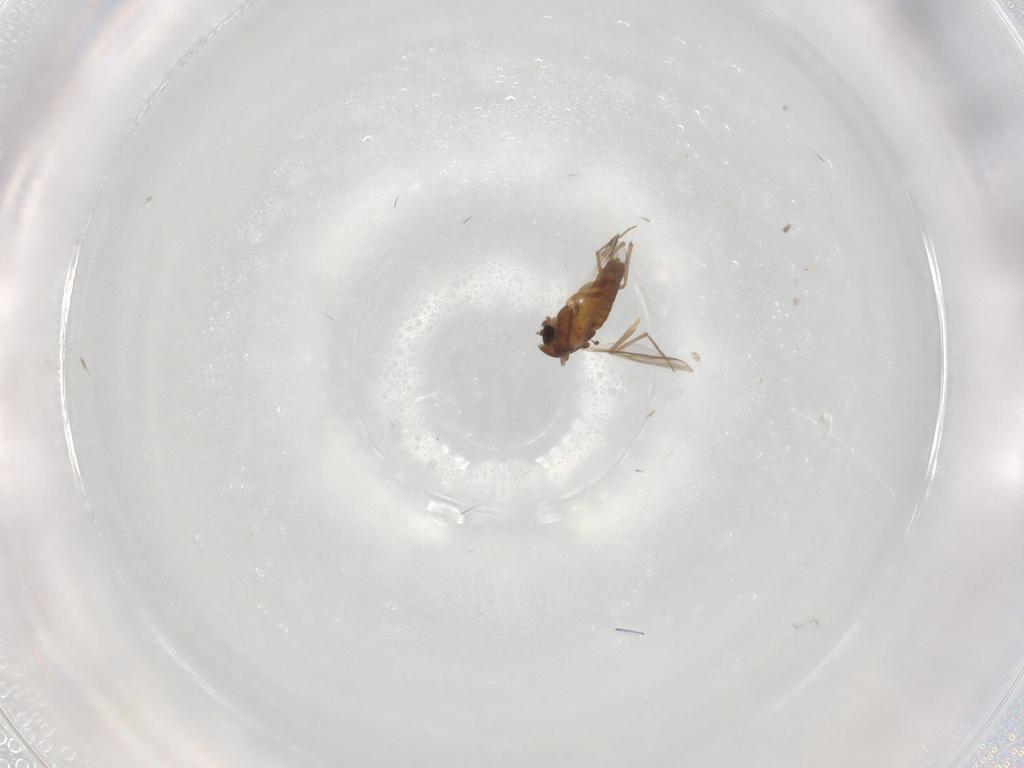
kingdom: Animalia
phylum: Arthropoda
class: Insecta
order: Diptera
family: Chironomidae
